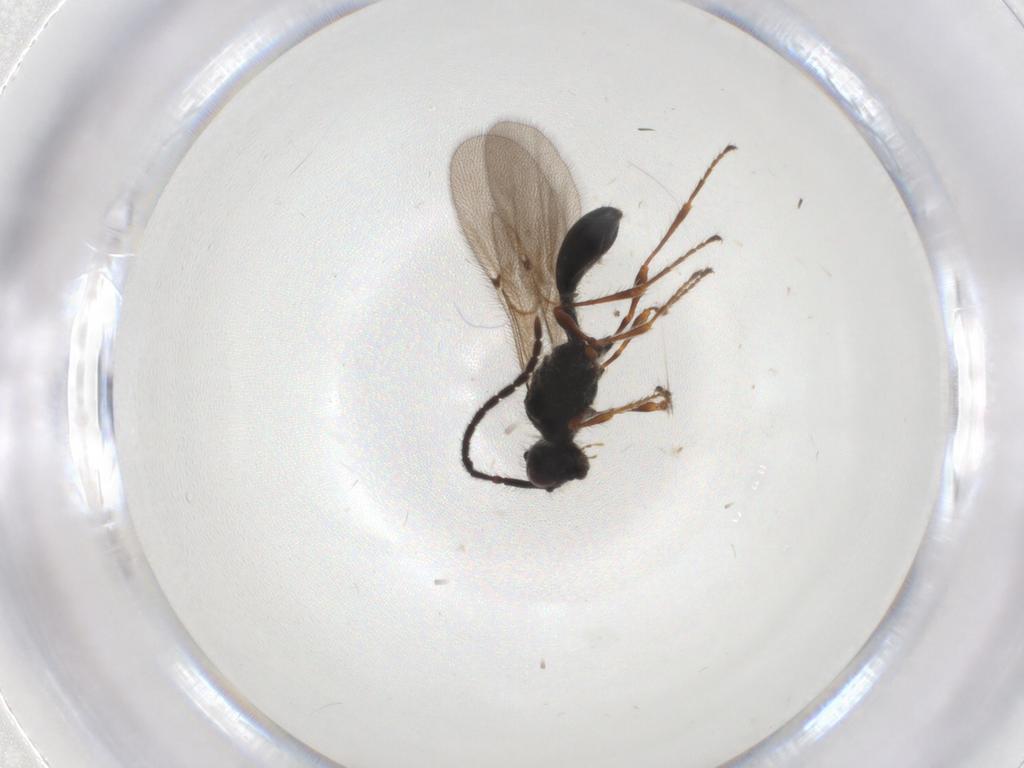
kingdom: Animalia
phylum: Arthropoda
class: Insecta
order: Hymenoptera
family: Diapriidae
